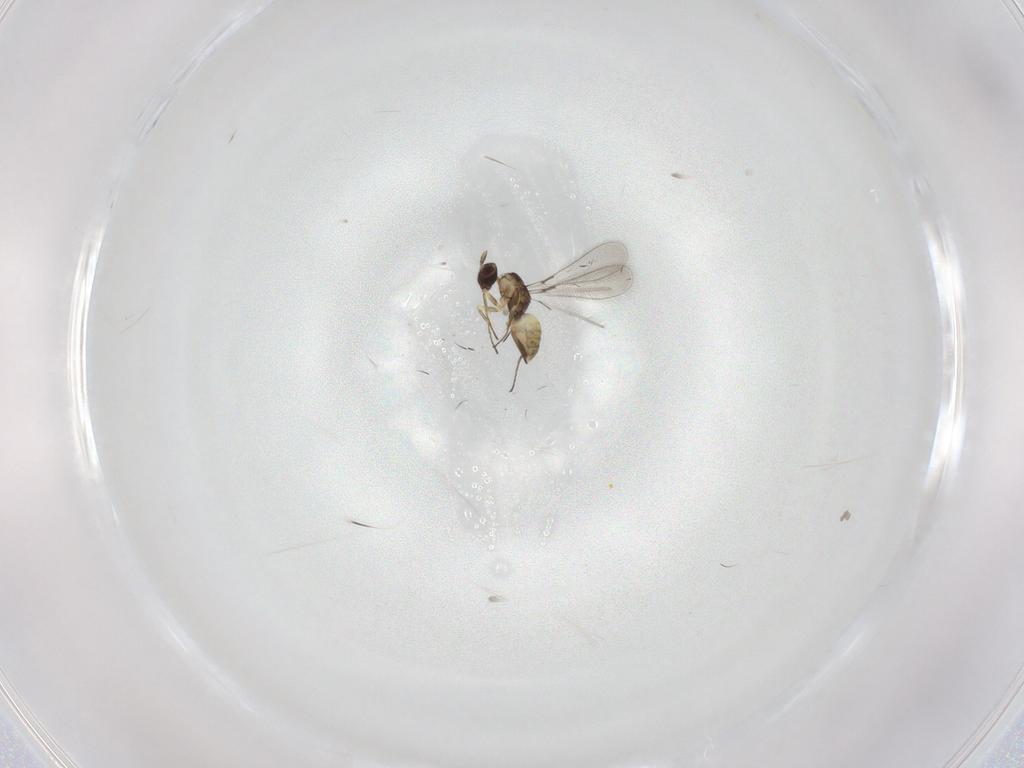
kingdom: Animalia
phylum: Arthropoda
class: Insecta
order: Hymenoptera
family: Mymaridae
